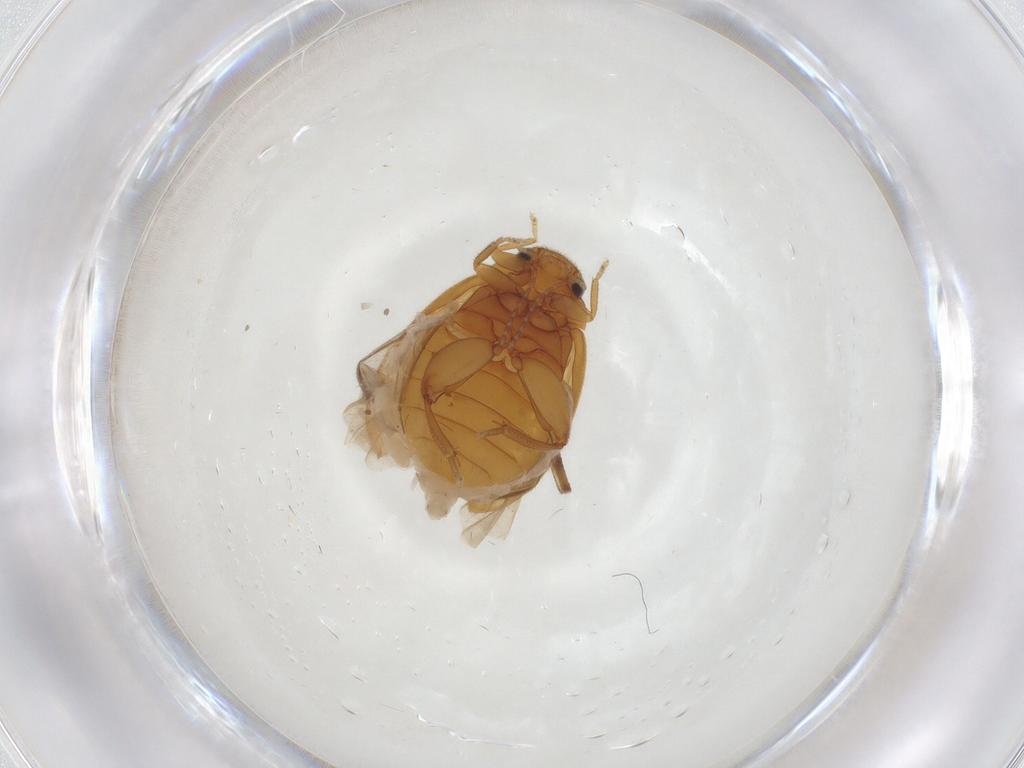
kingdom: Animalia
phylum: Arthropoda
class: Insecta
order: Coleoptera
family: Scirtidae
